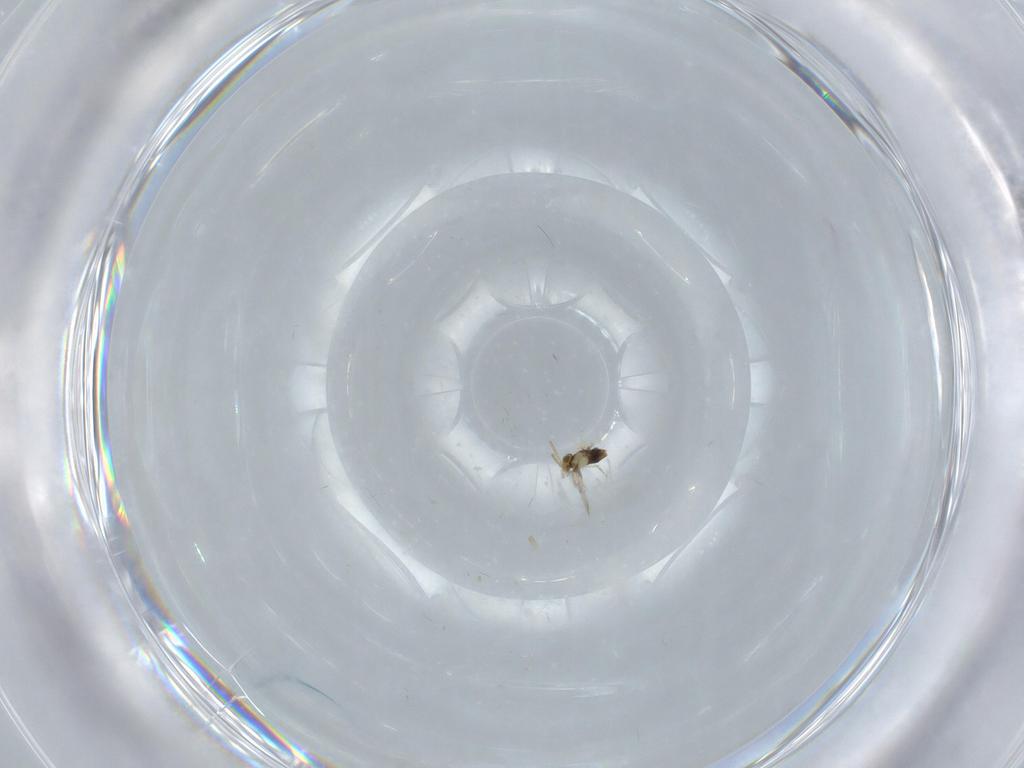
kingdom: Animalia
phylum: Arthropoda
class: Insecta
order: Hymenoptera
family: Aphelinidae
